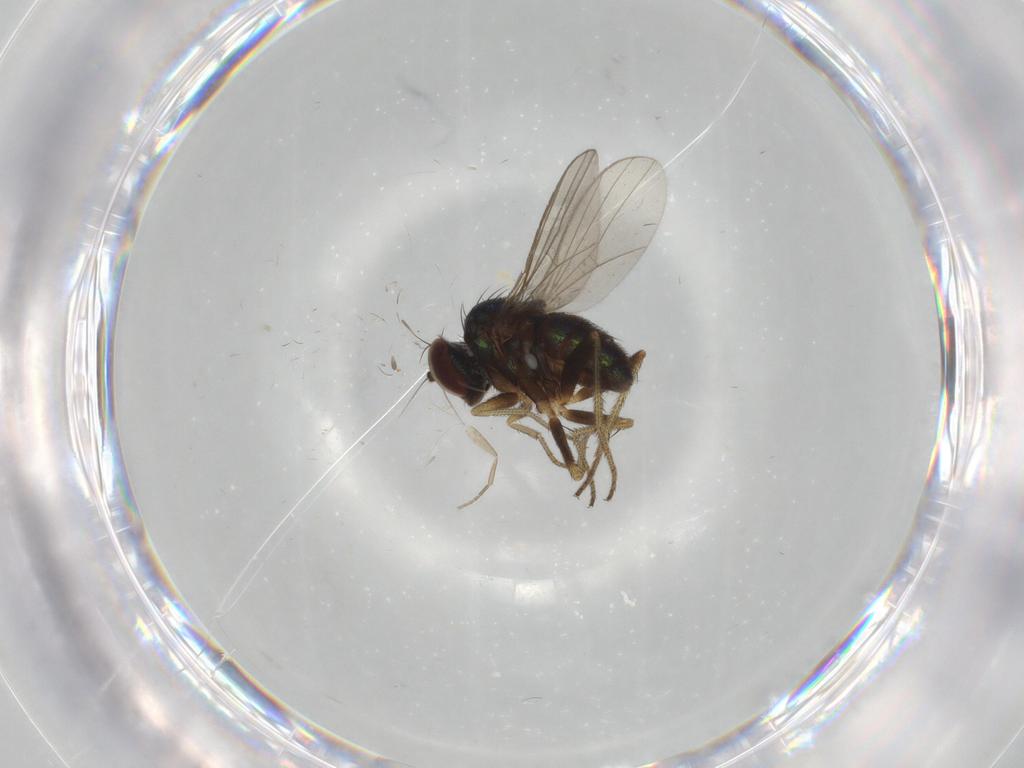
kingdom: Animalia
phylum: Arthropoda
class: Insecta
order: Diptera
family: Dolichopodidae
